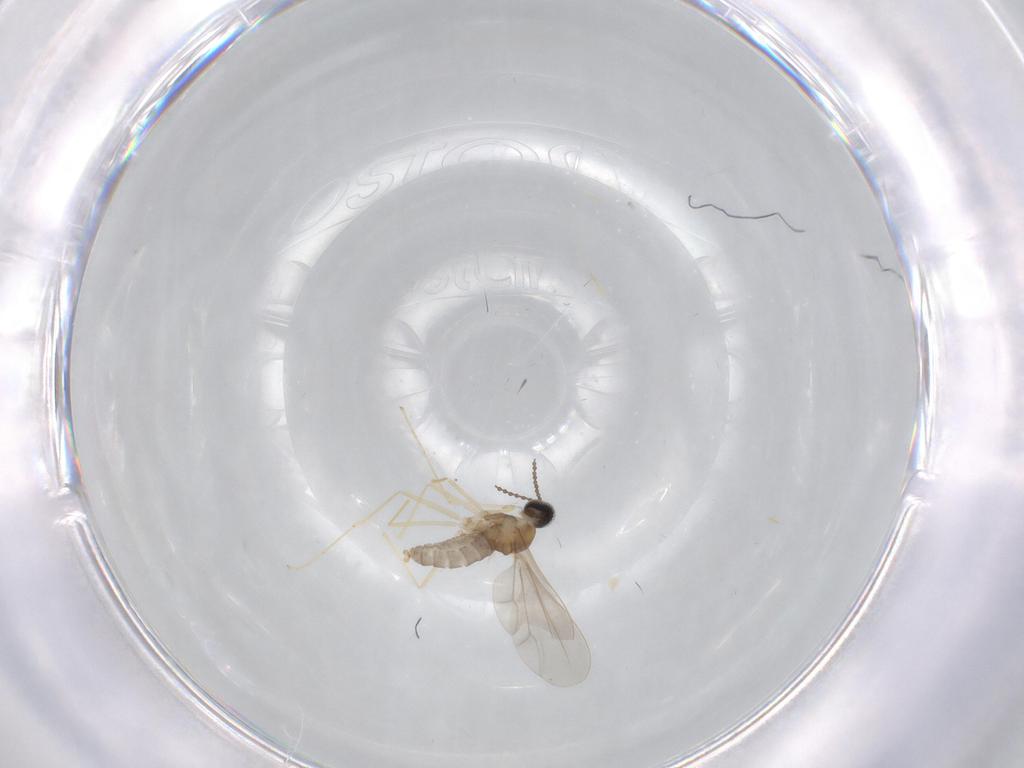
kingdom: Animalia
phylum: Arthropoda
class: Insecta
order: Diptera
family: Cecidomyiidae
